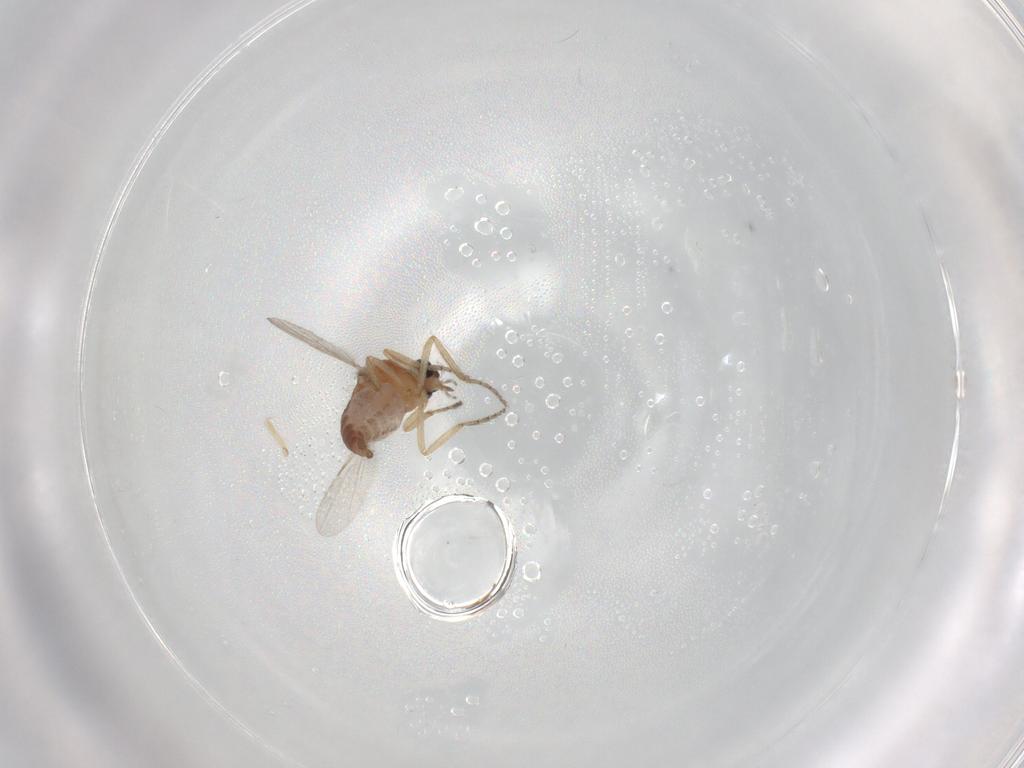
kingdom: Animalia
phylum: Arthropoda
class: Insecta
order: Diptera
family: Ceratopogonidae
